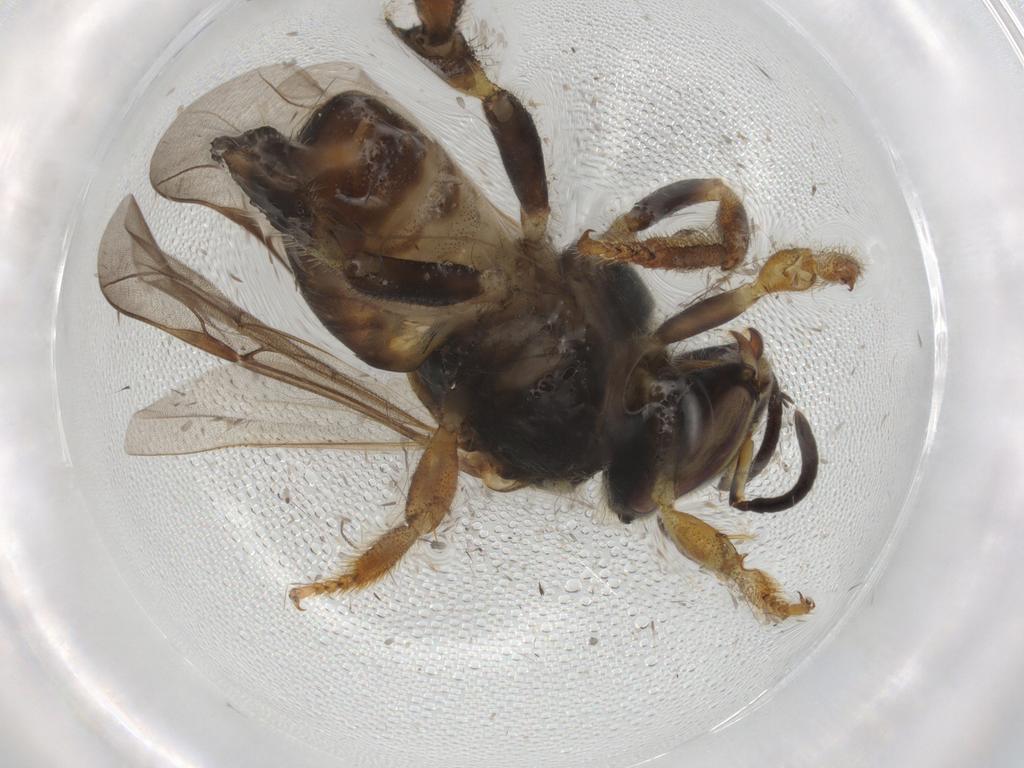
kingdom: Animalia
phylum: Arthropoda
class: Insecta
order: Hymenoptera
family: Apidae
